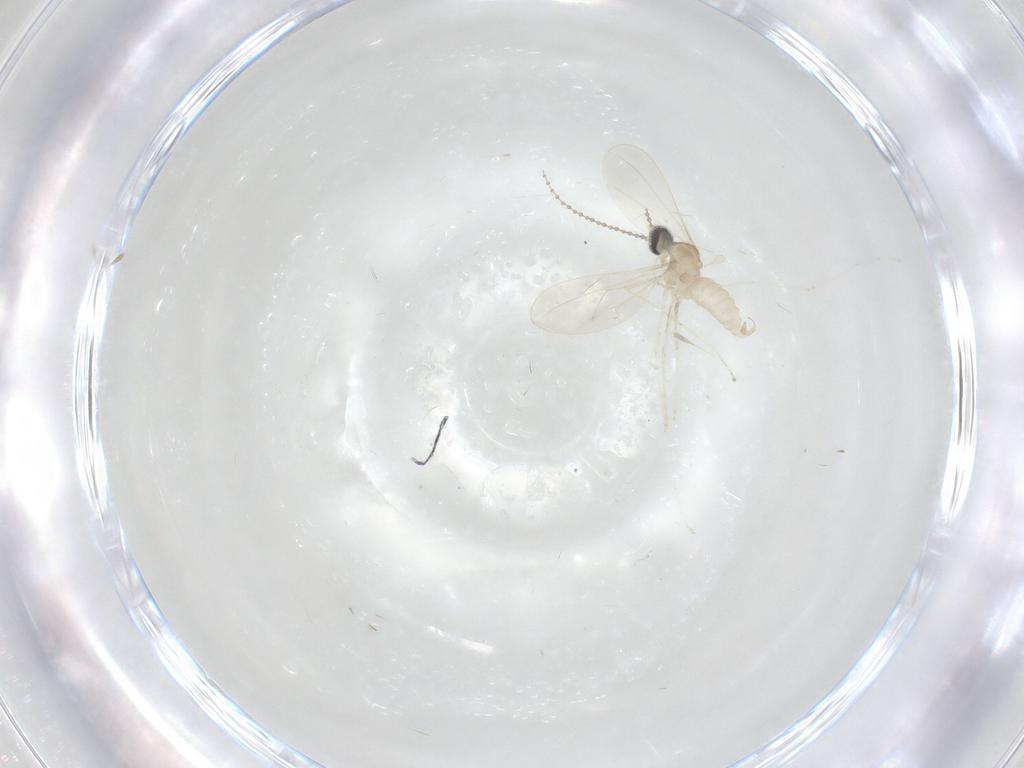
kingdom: Animalia
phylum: Arthropoda
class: Insecta
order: Diptera
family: Cecidomyiidae
